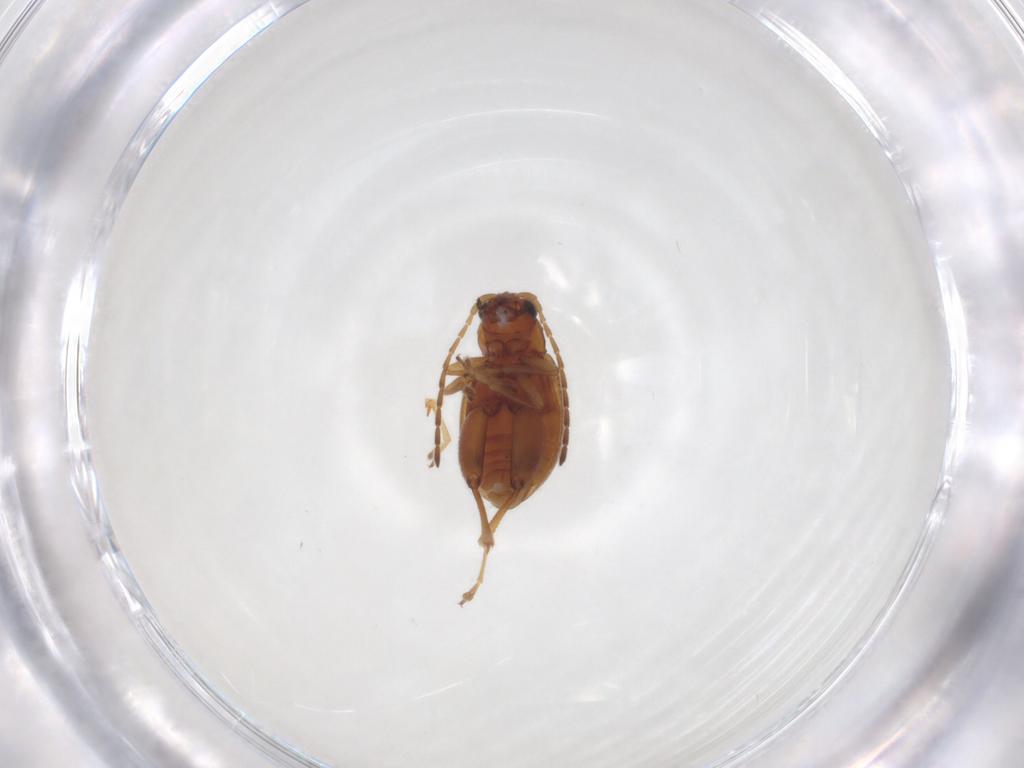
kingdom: Animalia
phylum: Arthropoda
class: Insecta
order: Coleoptera
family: Chrysomelidae
